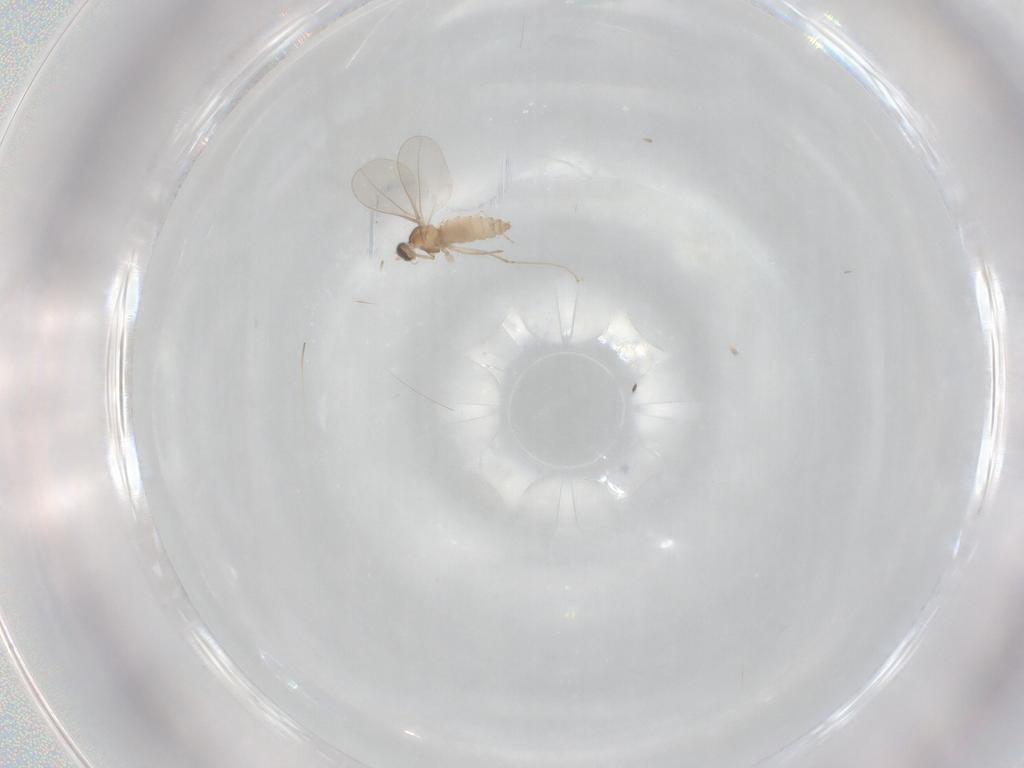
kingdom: Animalia
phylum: Arthropoda
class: Insecta
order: Diptera
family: Cecidomyiidae
